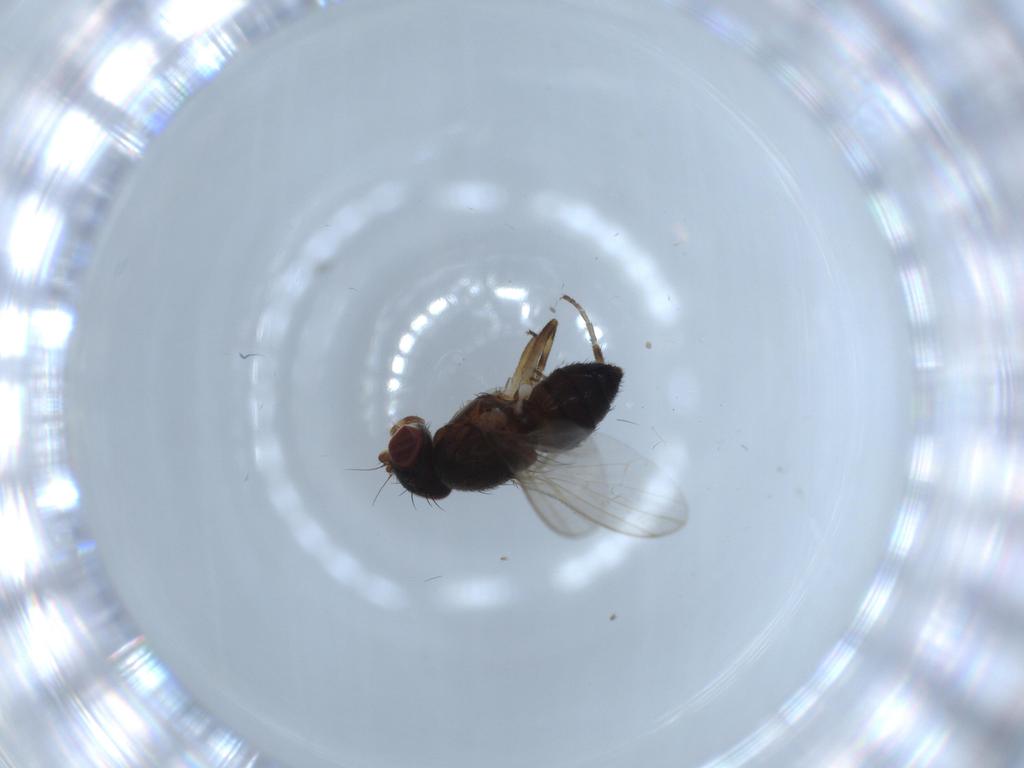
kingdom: Animalia
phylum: Arthropoda
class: Insecta
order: Diptera
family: Heleomyzidae
